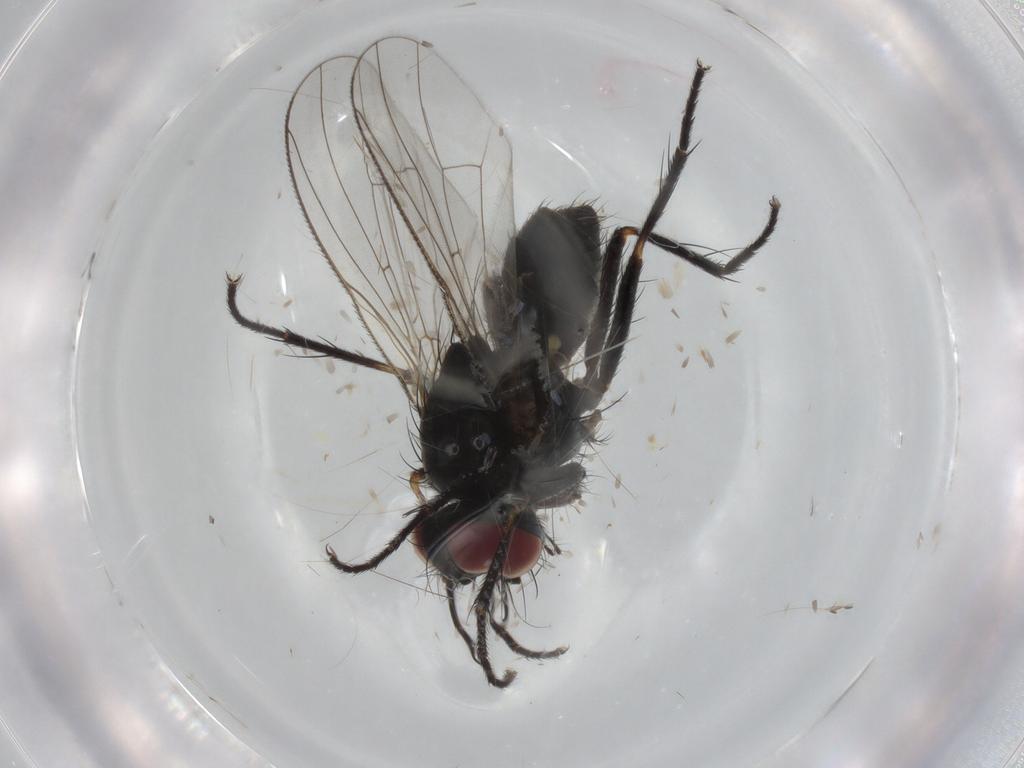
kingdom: Animalia
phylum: Arthropoda
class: Insecta
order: Diptera
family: Muscidae
